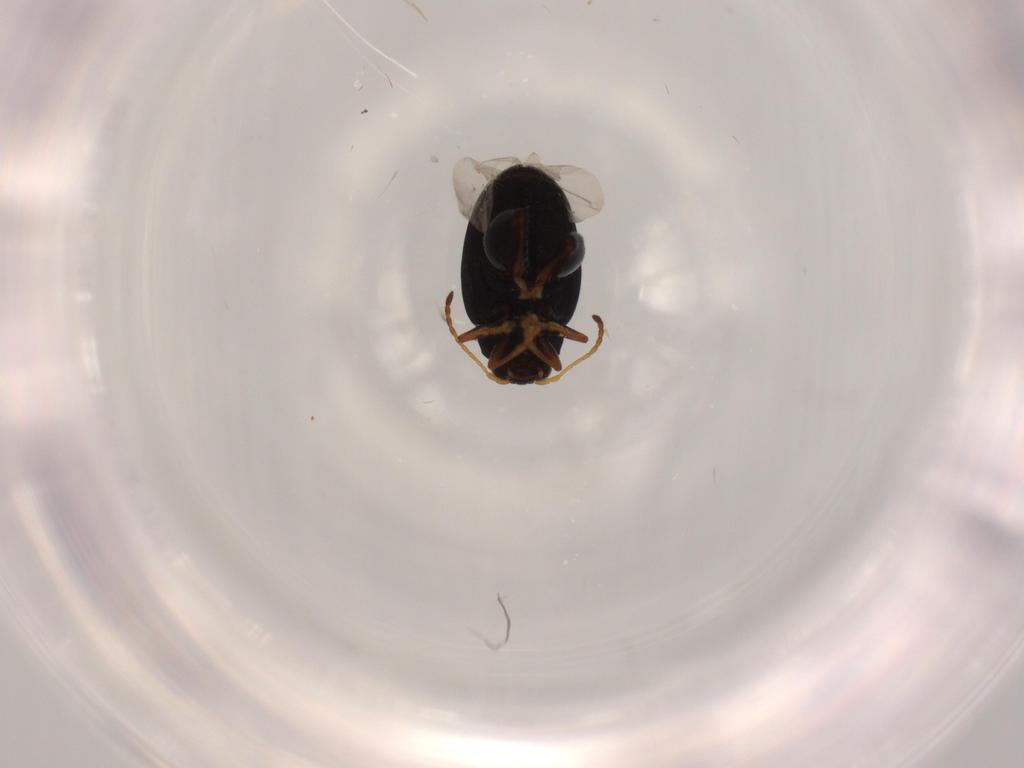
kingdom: Animalia
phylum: Arthropoda
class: Insecta
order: Coleoptera
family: Chrysomelidae
